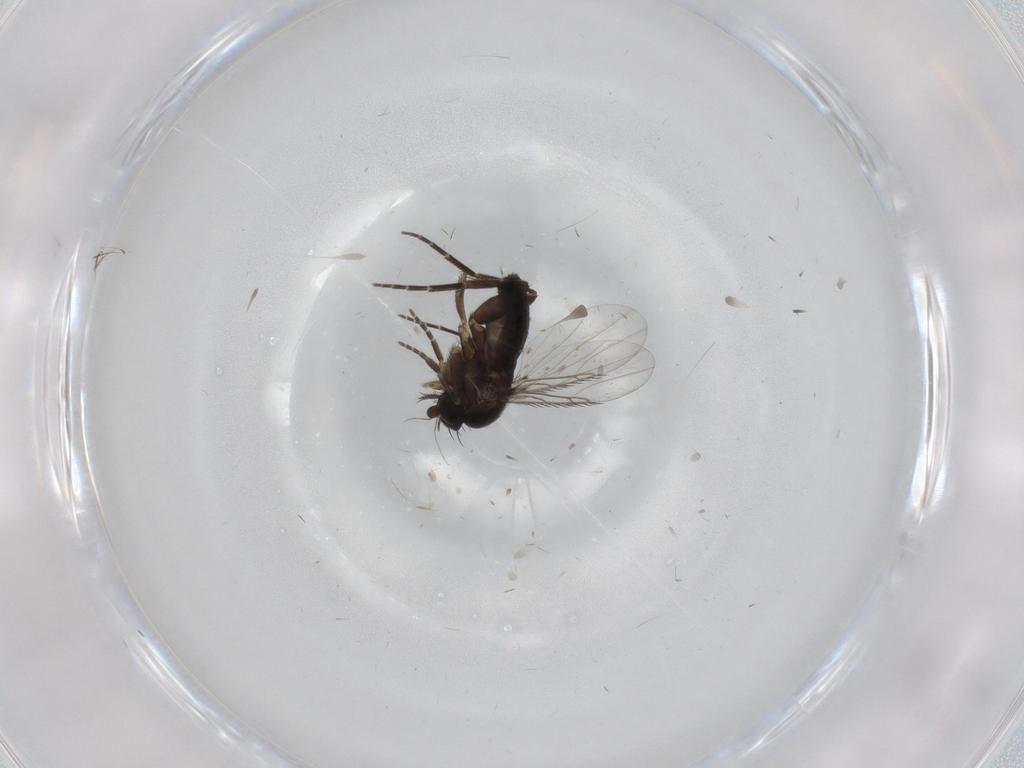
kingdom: Animalia
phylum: Arthropoda
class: Insecta
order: Diptera
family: Phoridae
